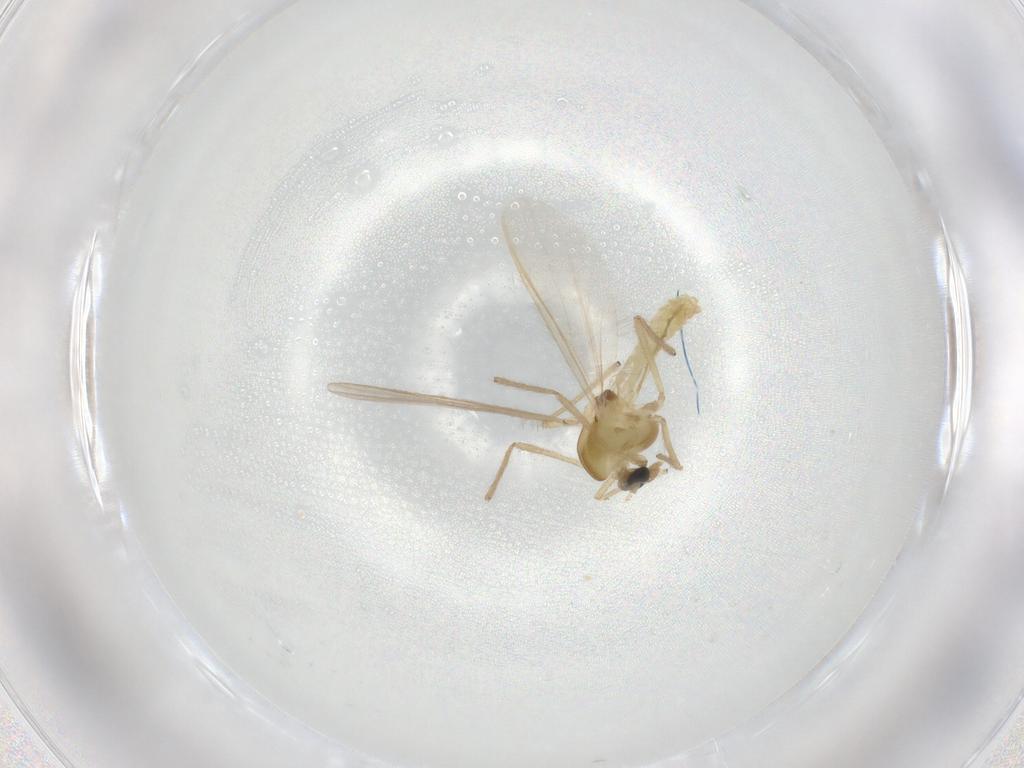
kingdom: Animalia
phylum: Arthropoda
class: Insecta
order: Diptera
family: Chironomidae
